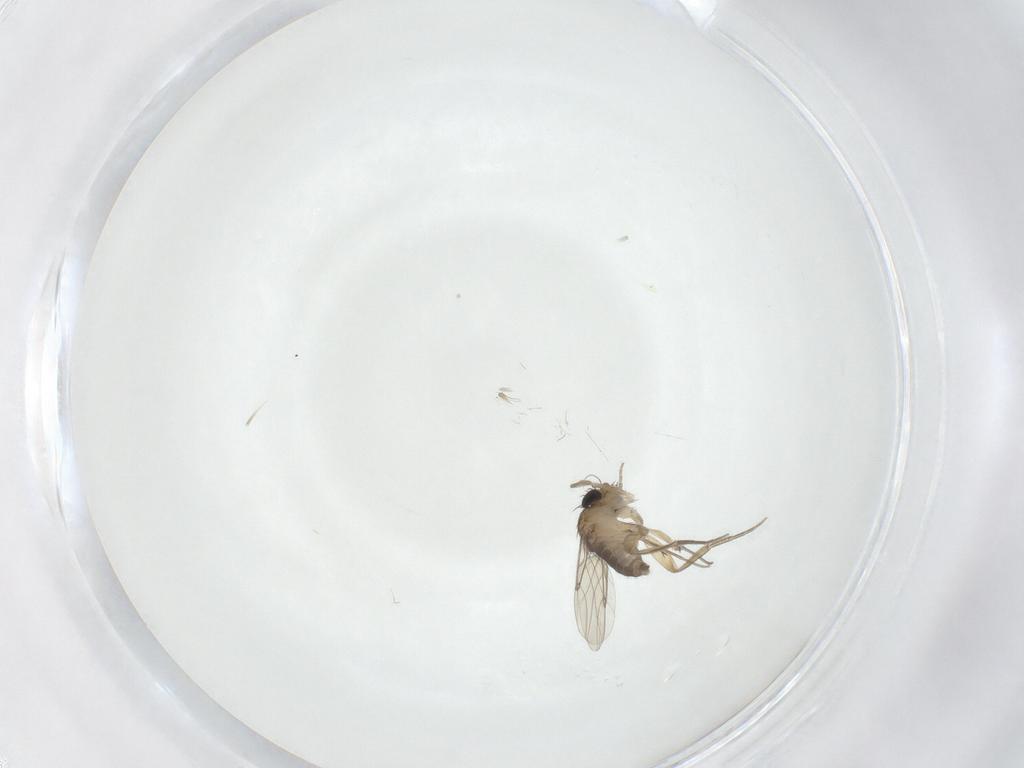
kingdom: Animalia
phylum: Arthropoda
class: Insecta
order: Diptera
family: Phoridae
